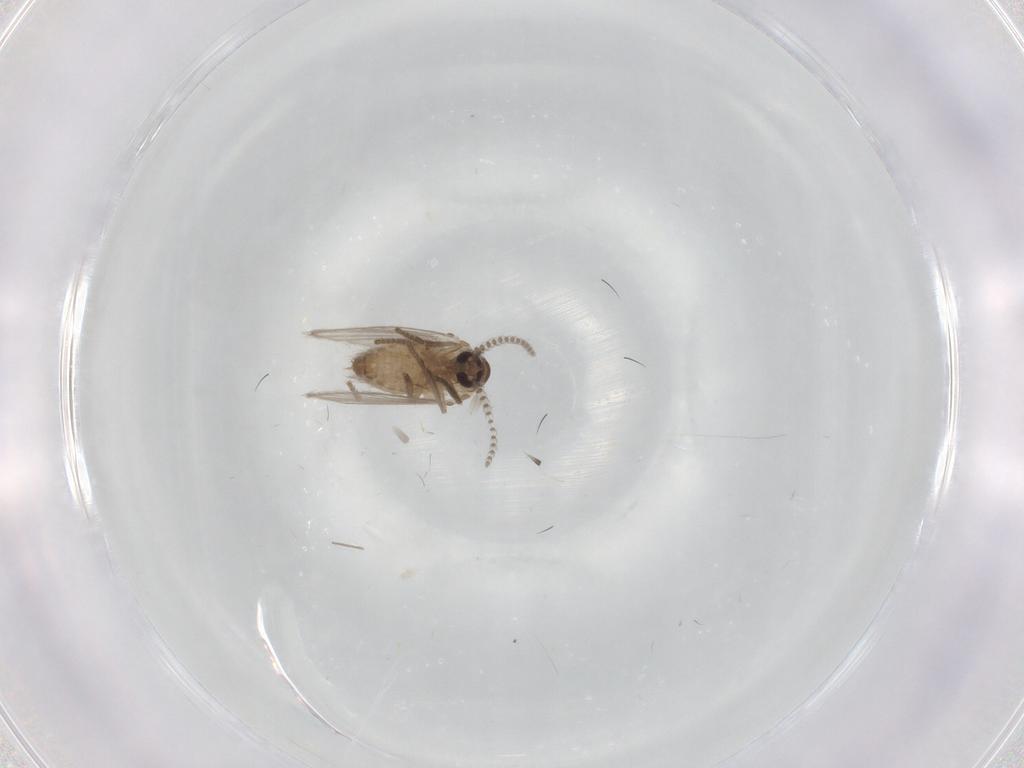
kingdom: Animalia
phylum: Arthropoda
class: Insecta
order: Diptera
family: Psychodidae
